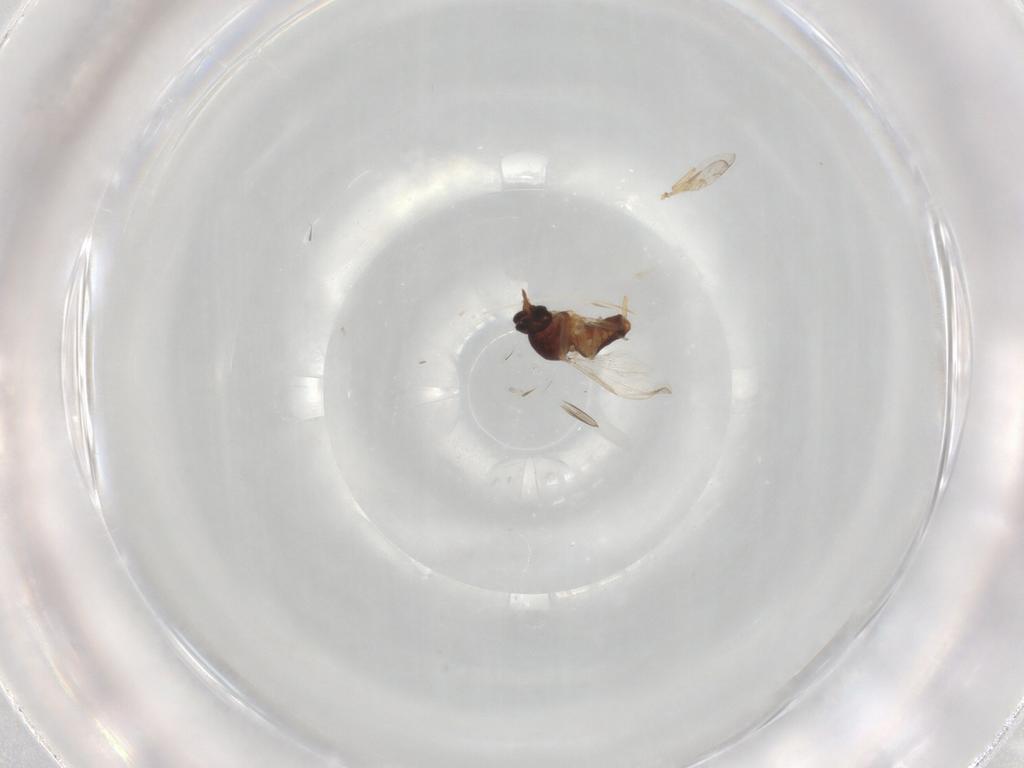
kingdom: Animalia
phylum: Arthropoda
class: Insecta
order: Diptera
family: Ceratopogonidae
